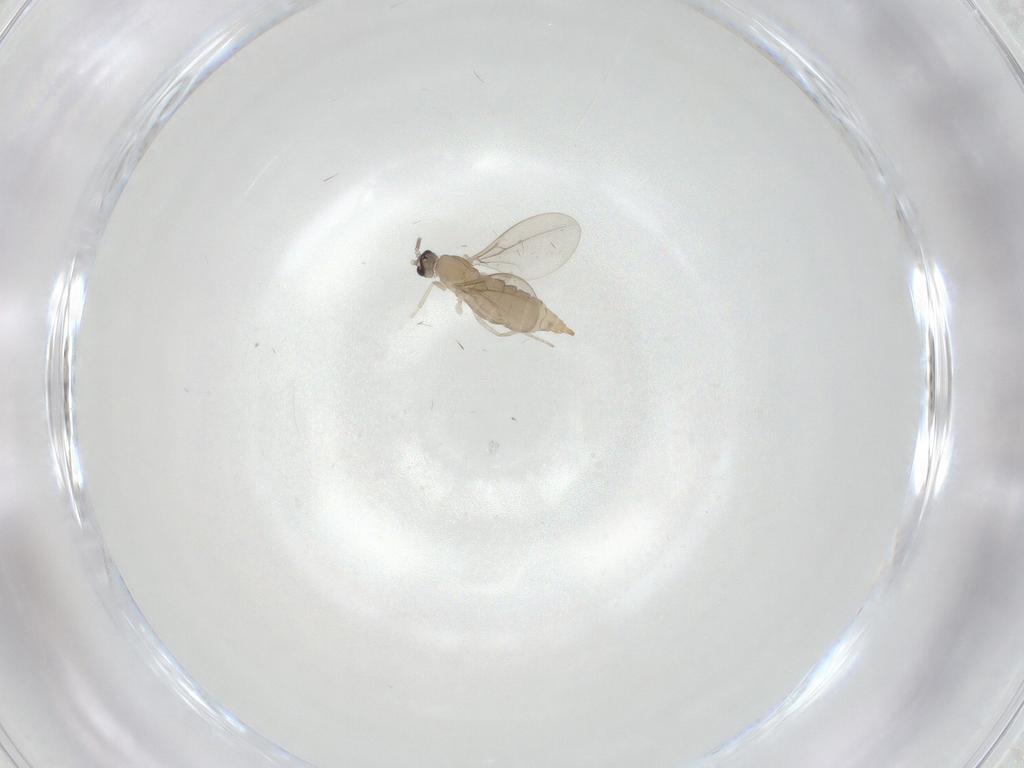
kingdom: Animalia
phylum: Arthropoda
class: Insecta
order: Diptera
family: Cecidomyiidae
